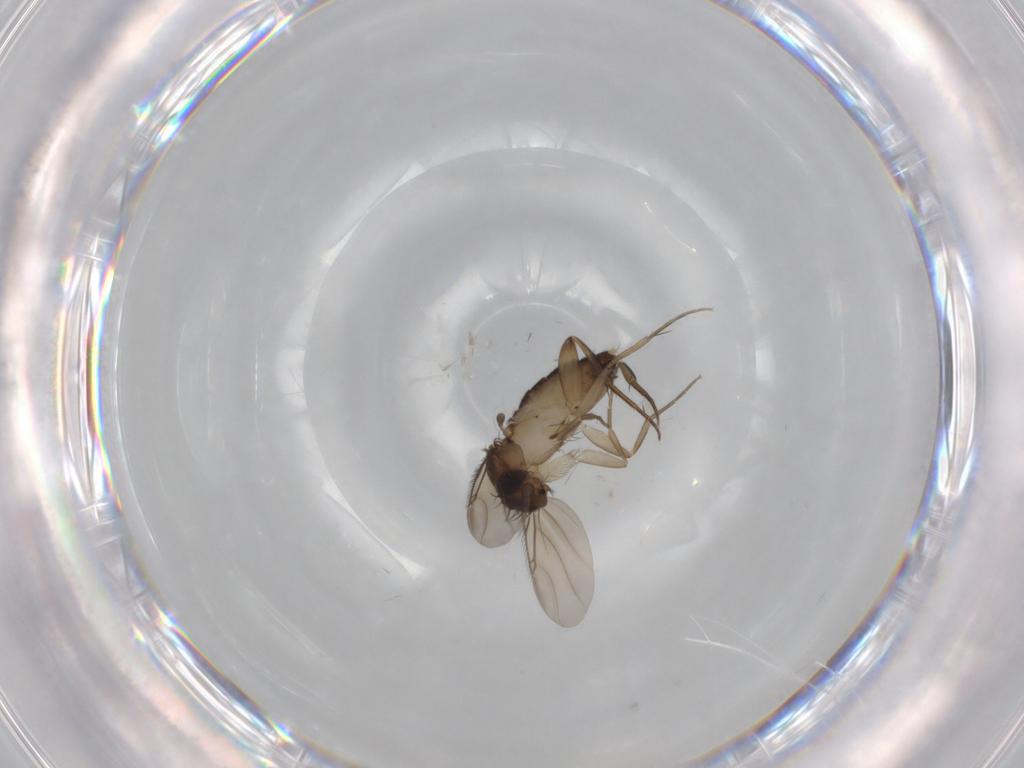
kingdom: Animalia
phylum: Arthropoda
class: Insecta
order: Diptera
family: Phoridae
